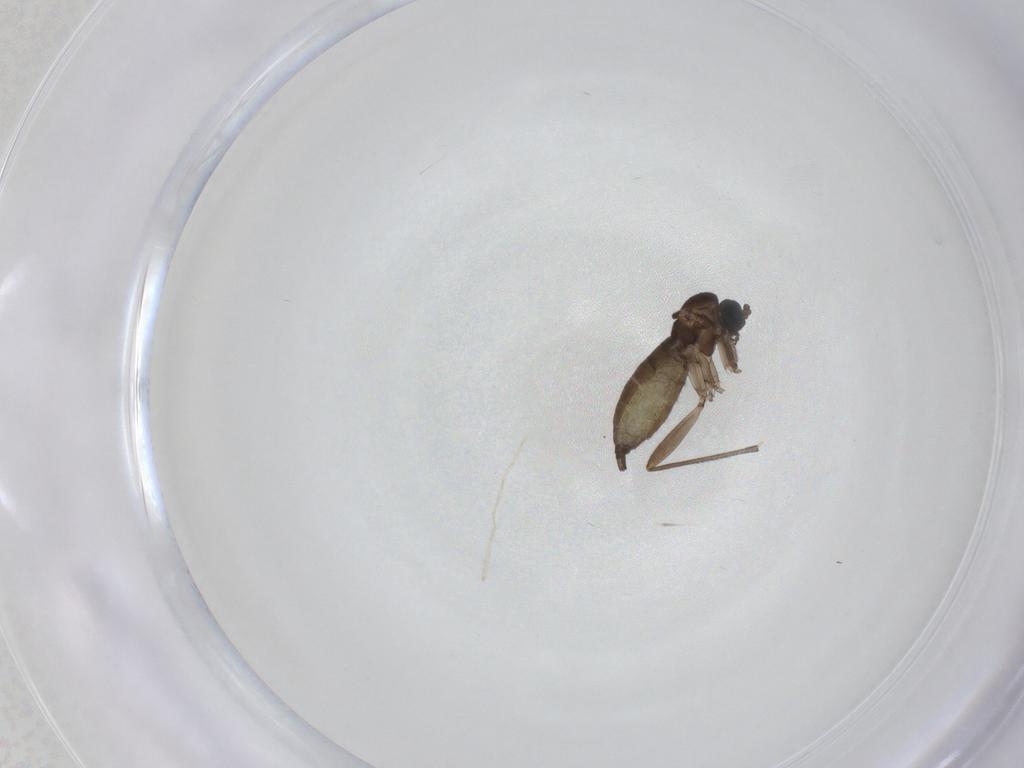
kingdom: Animalia
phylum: Arthropoda
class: Insecta
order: Diptera
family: Sciaridae
